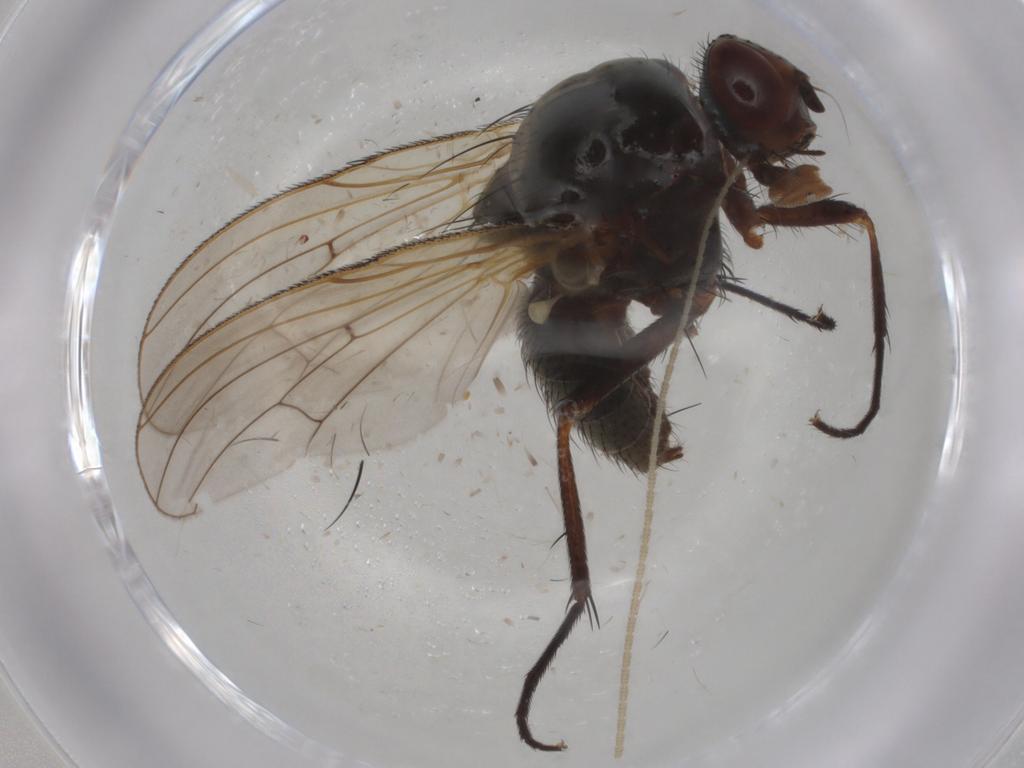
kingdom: Animalia
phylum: Arthropoda
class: Insecta
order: Diptera
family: Anthomyiidae
